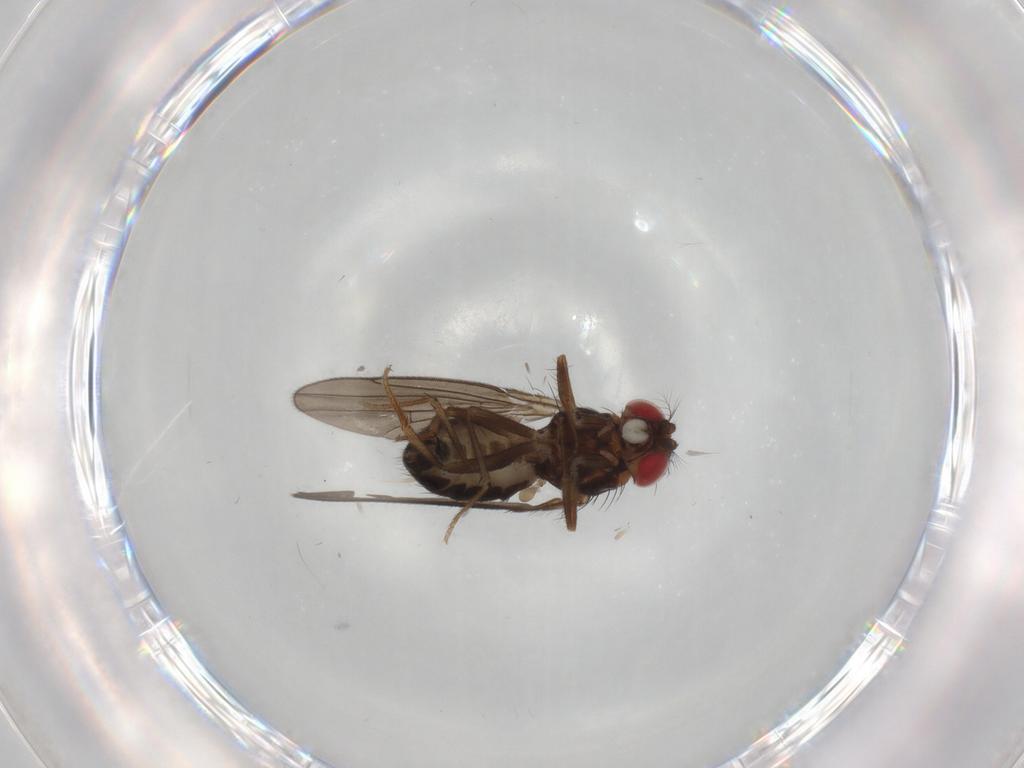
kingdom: Animalia
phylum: Arthropoda
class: Insecta
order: Diptera
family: Drosophilidae
